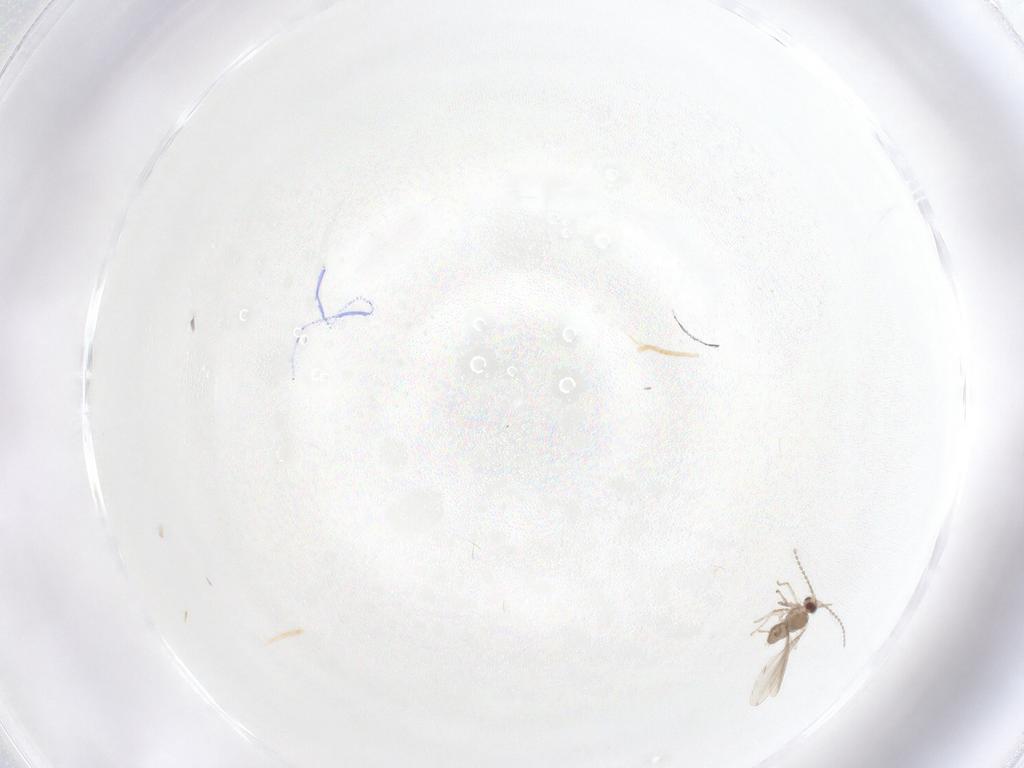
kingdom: Animalia
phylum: Arthropoda
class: Insecta
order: Diptera
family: Cecidomyiidae
